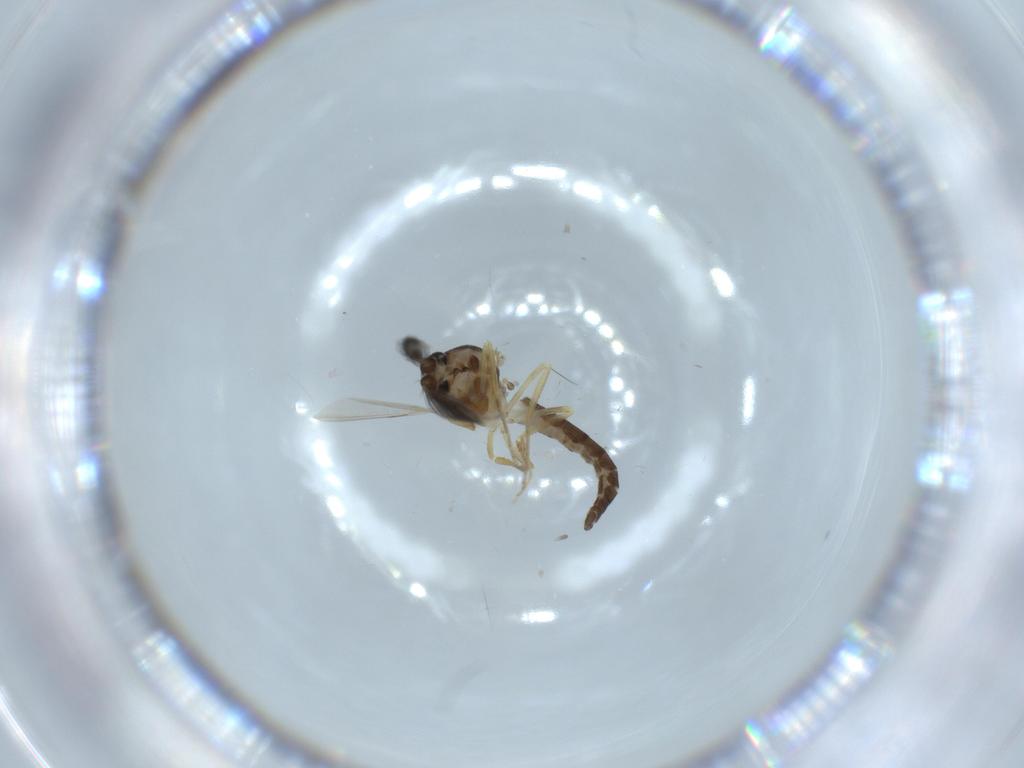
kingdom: Animalia
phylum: Arthropoda
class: Insecta
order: Diptera
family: Ceratopogonidae
